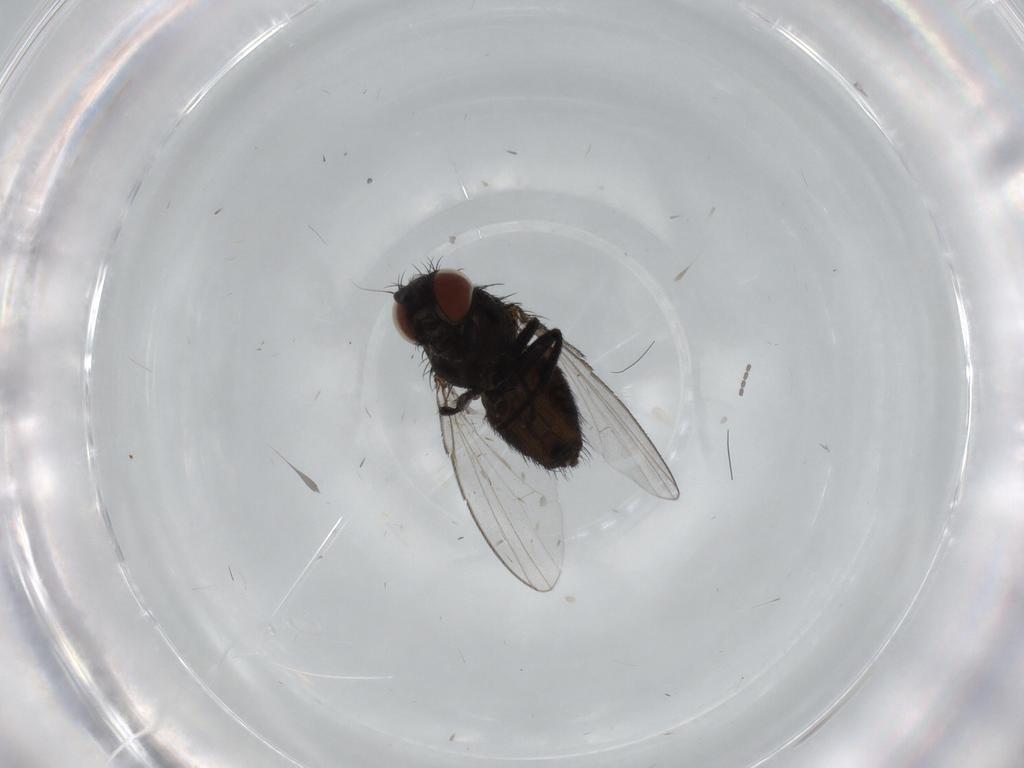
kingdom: Animalia
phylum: Arthropoda
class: Insecta
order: Diptera
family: Sphaeroceridae
